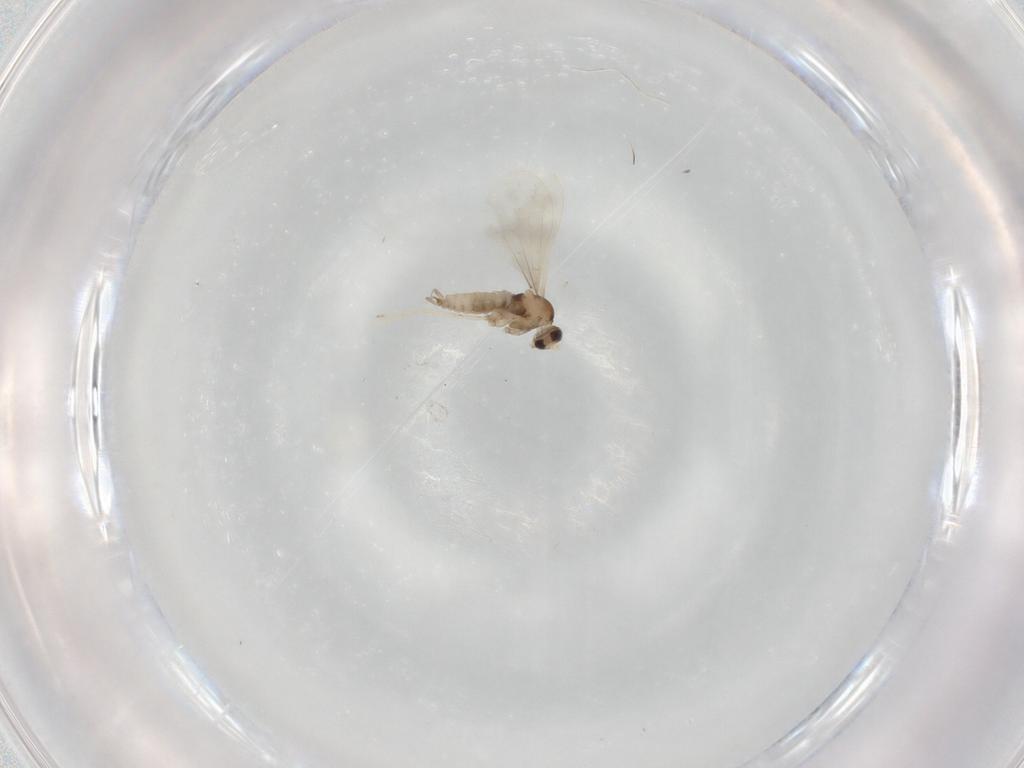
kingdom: Animalia
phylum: Arthropoda
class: Insecta
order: Diptera
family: Cecidomyiidae
